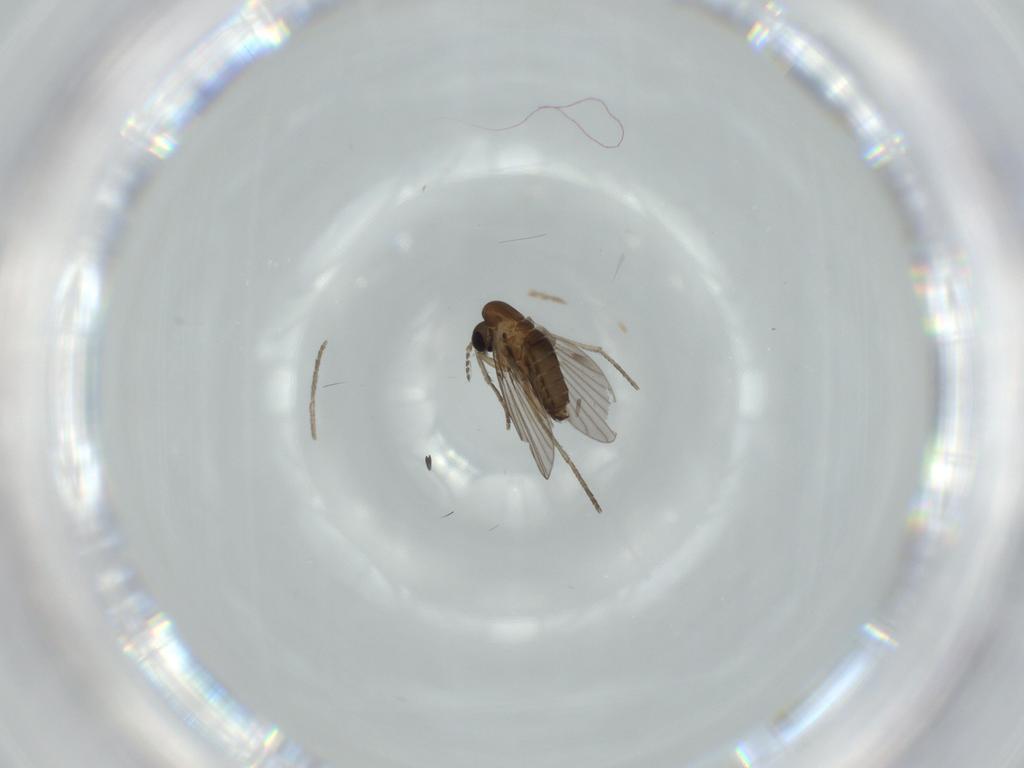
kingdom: Animalia
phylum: Arthropoda
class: Insecta
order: Diptera
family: Psychodidae
